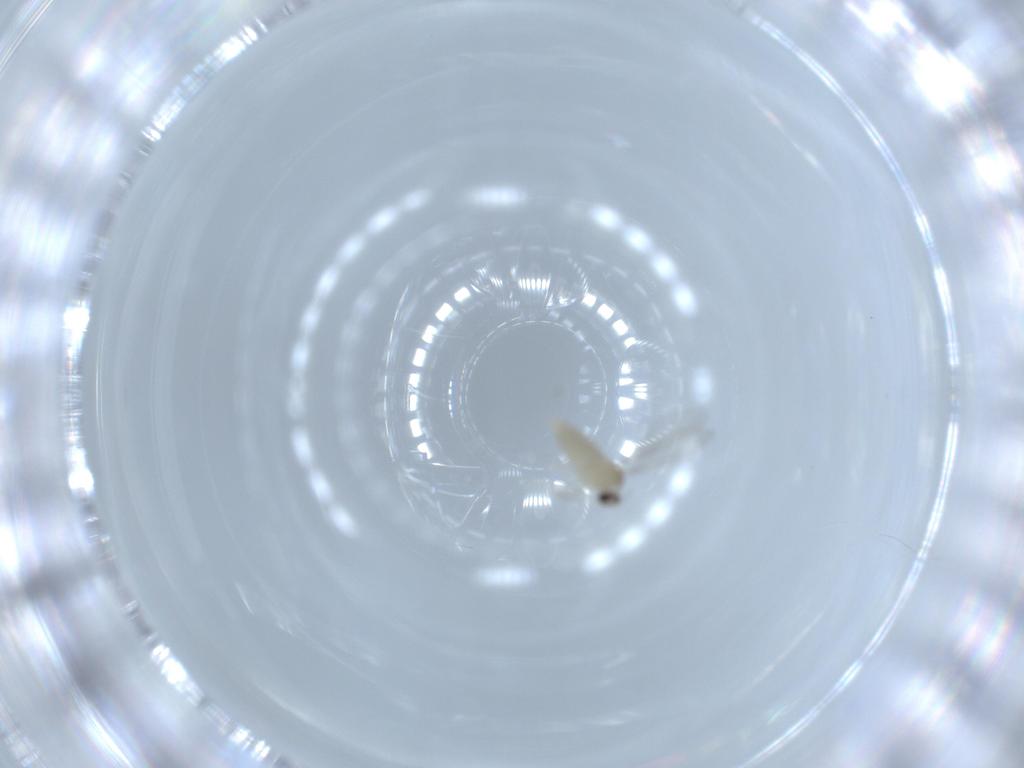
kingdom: Animalia
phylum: Arthropoda
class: Insecta
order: Diptera
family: Cecidomyiidae
